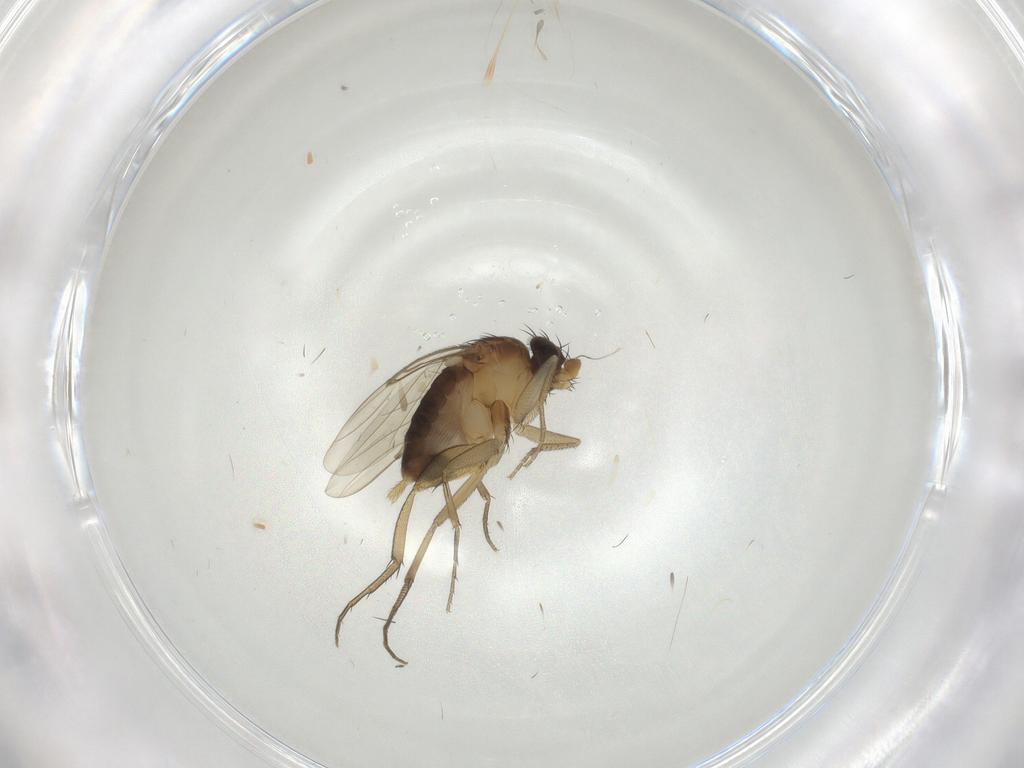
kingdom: Animalia
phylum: Arthropoda
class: Insecta
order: Diptera
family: Phoridae
